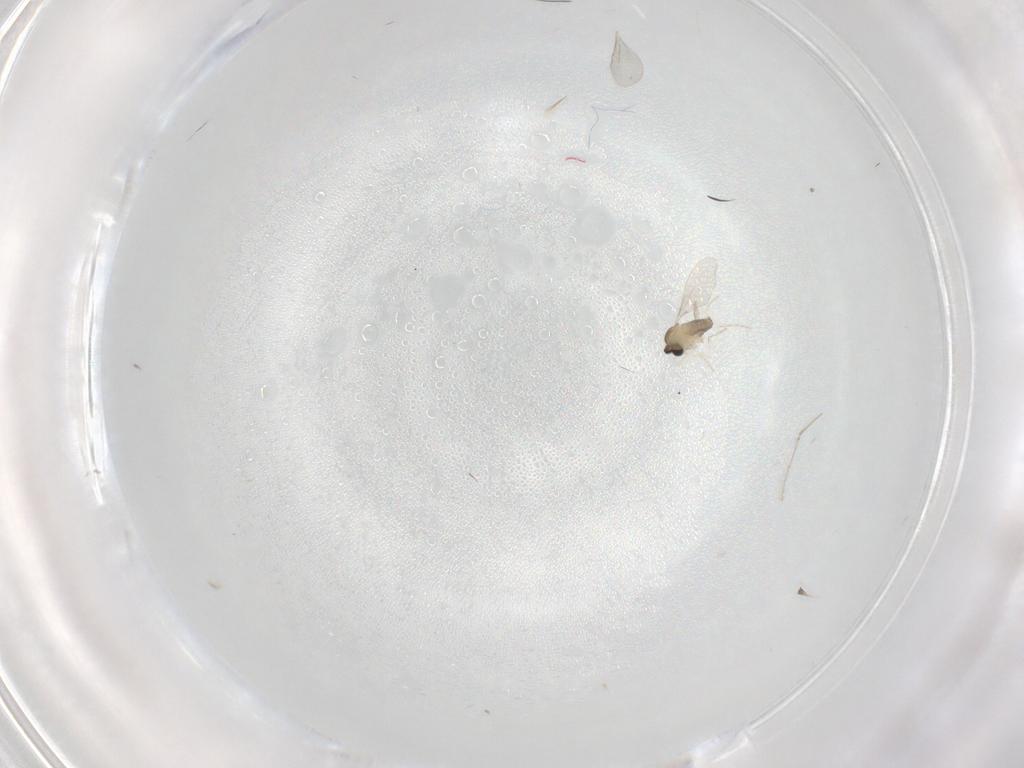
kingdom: Animalia
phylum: Arthropoda
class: Insecta
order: Diptera
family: Cecidomyiidae
